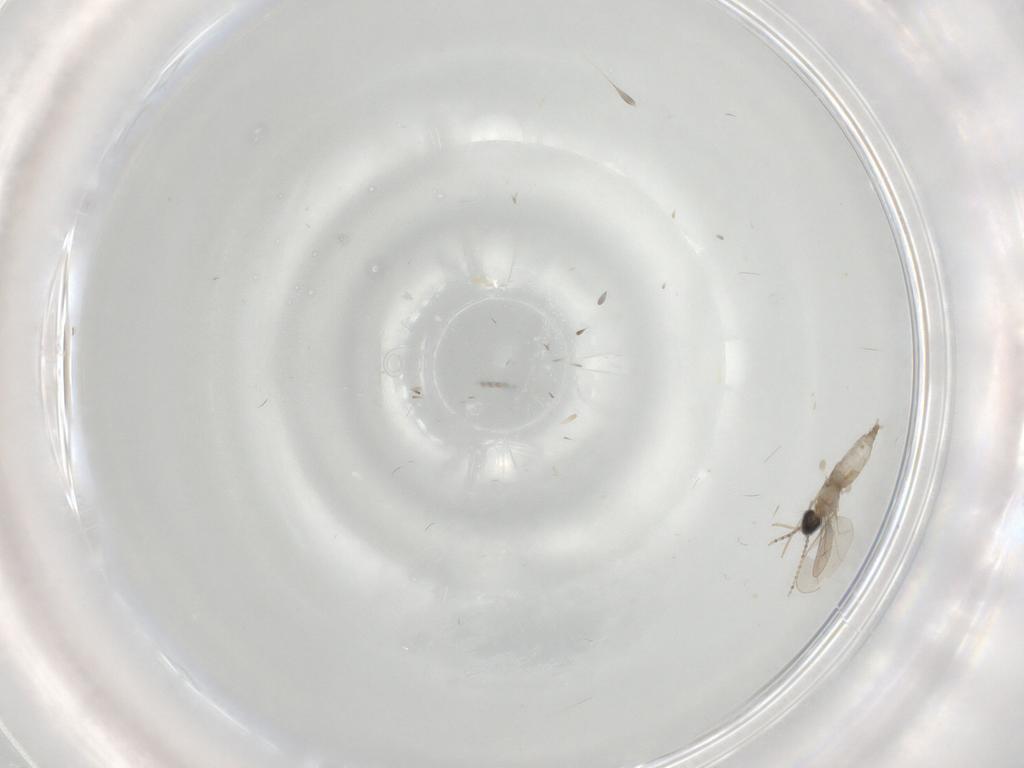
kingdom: Animalia
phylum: Arthropoda
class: Insecta
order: Diptera
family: Cecidomyiidae
